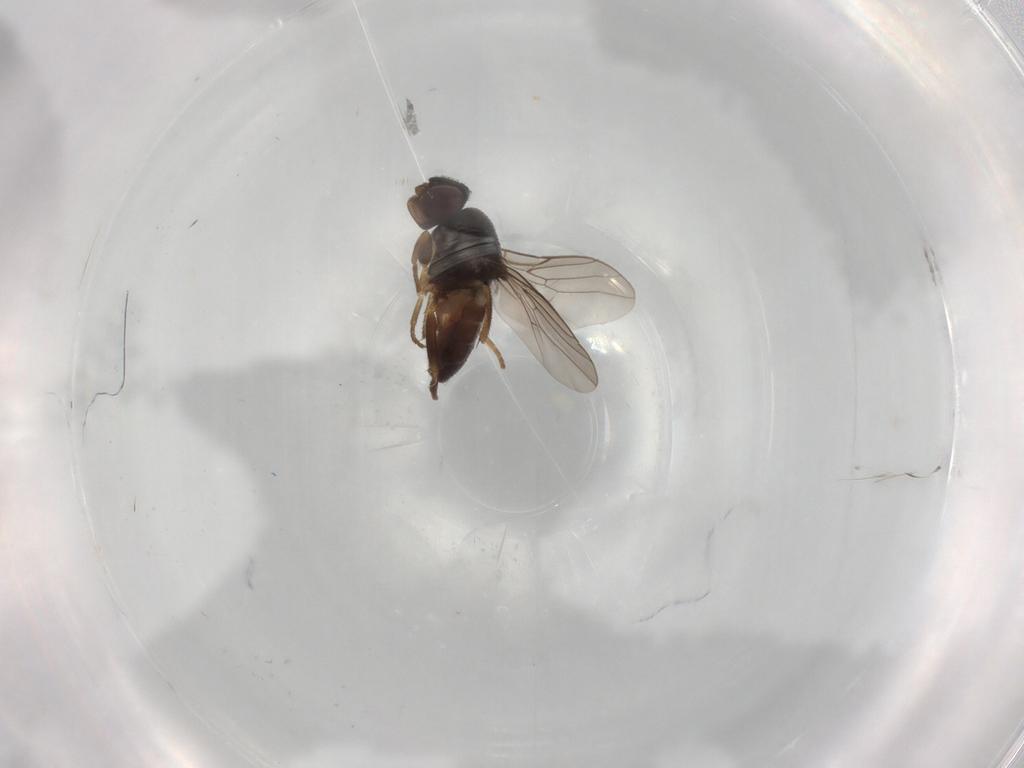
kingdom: Animalia
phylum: Arthropoda
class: Insecta
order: Diptera
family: Chloropidae
